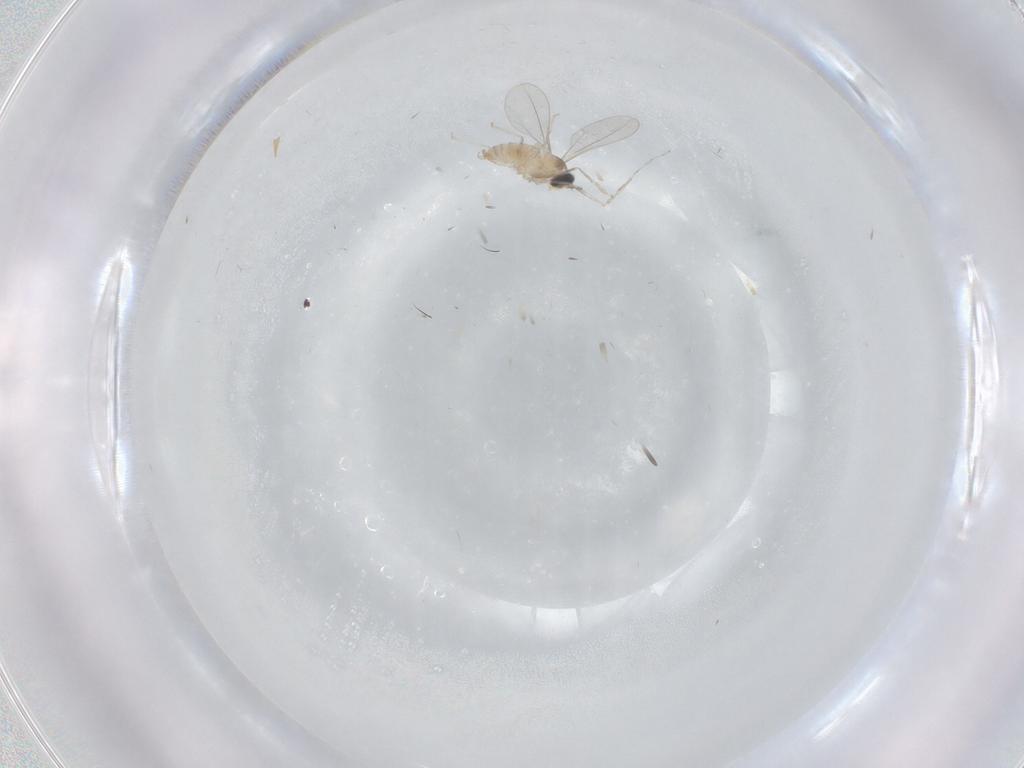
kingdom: Animalia
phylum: Arthropoda
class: Insecta
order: Diptera
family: Cecidomyiidae
